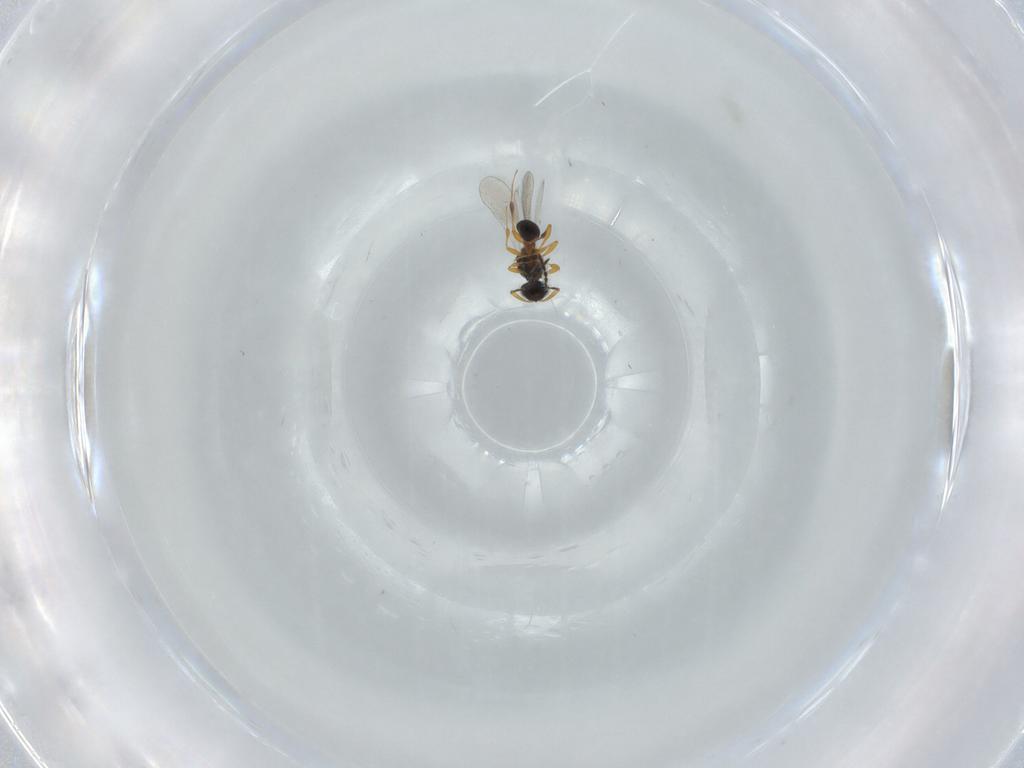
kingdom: Animalia
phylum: Arthropoda
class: Insecta
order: Hymenoptera
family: Platygastridae
